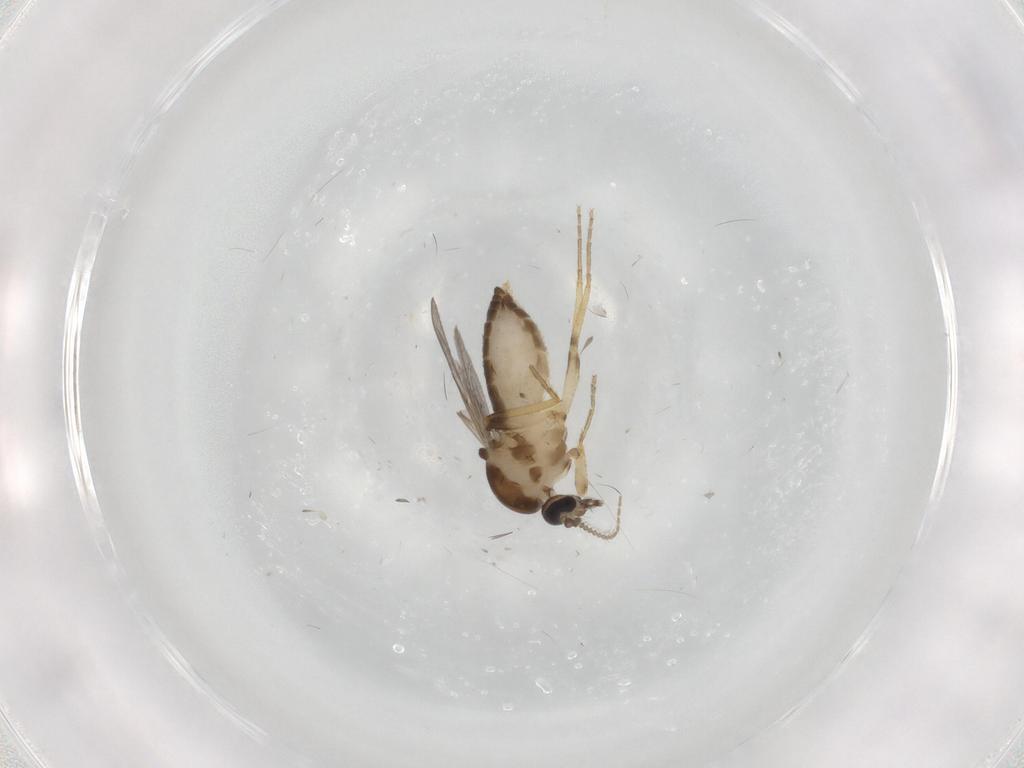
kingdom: Animalia
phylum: Arthropoda
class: Insecta
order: Diptera
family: Ceratopogonidae
